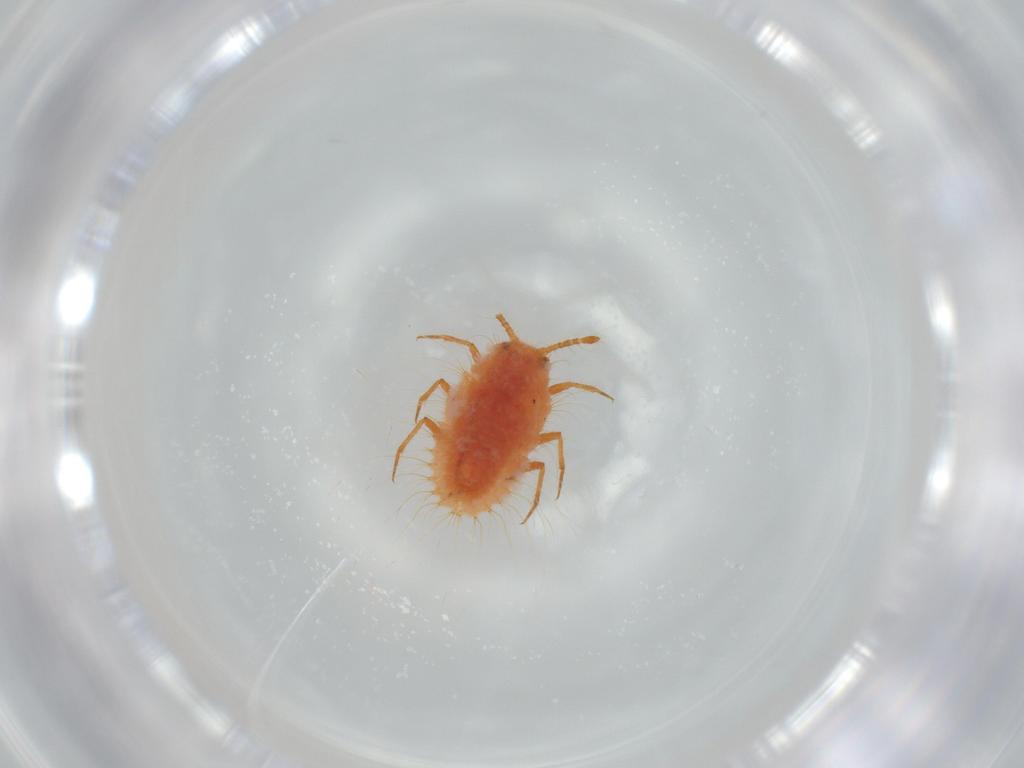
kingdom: Animalia
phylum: Arthropoda
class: Insecta
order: Hemiptera
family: Coccoidea_incertae_sedis
